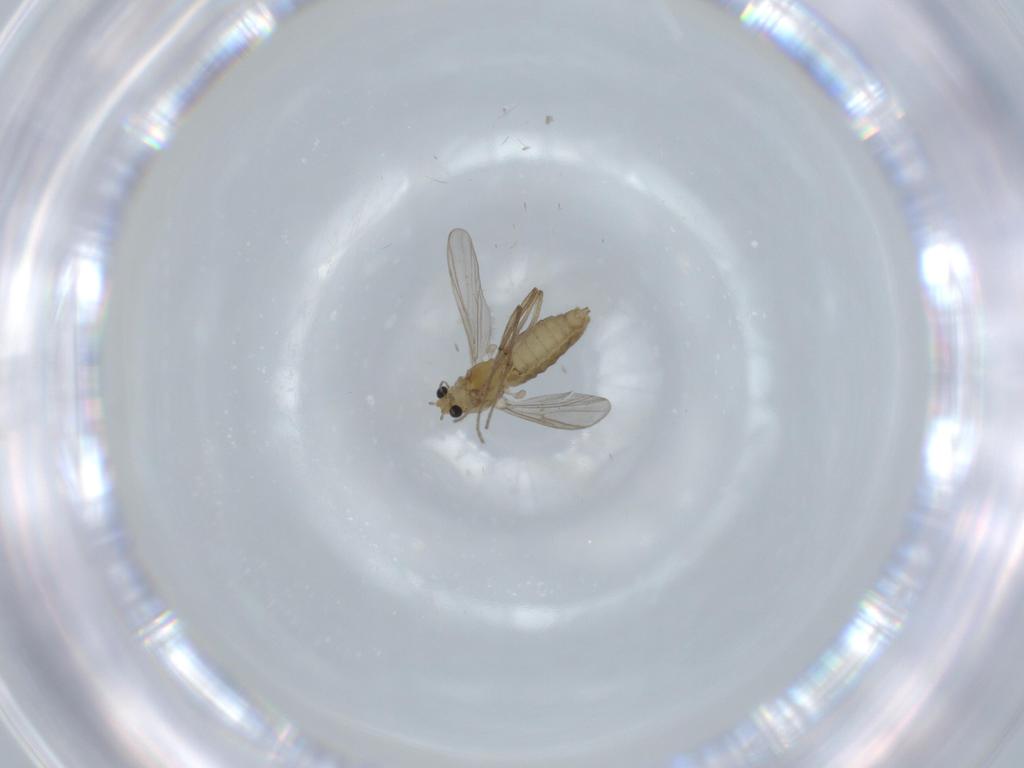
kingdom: Animalia
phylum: Arthropoda
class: Insecta
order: Diptera
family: Chironomidae
